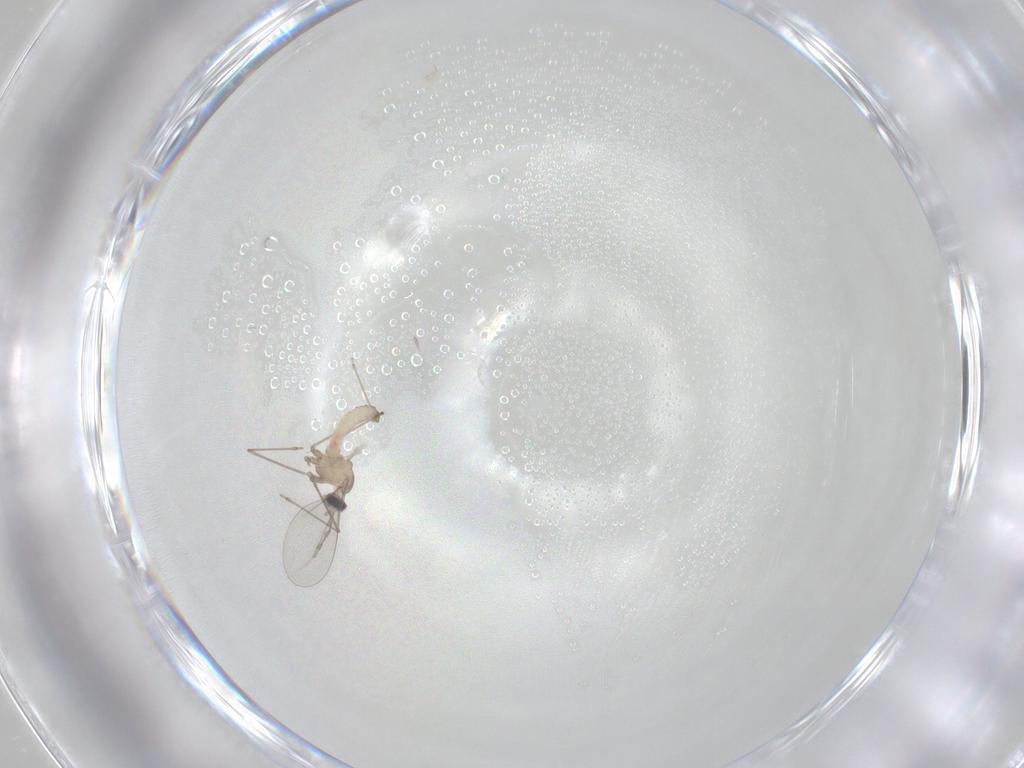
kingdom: Animalia
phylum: Arthropoda
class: Insecta
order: Diptera
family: Cecidomyiidae
